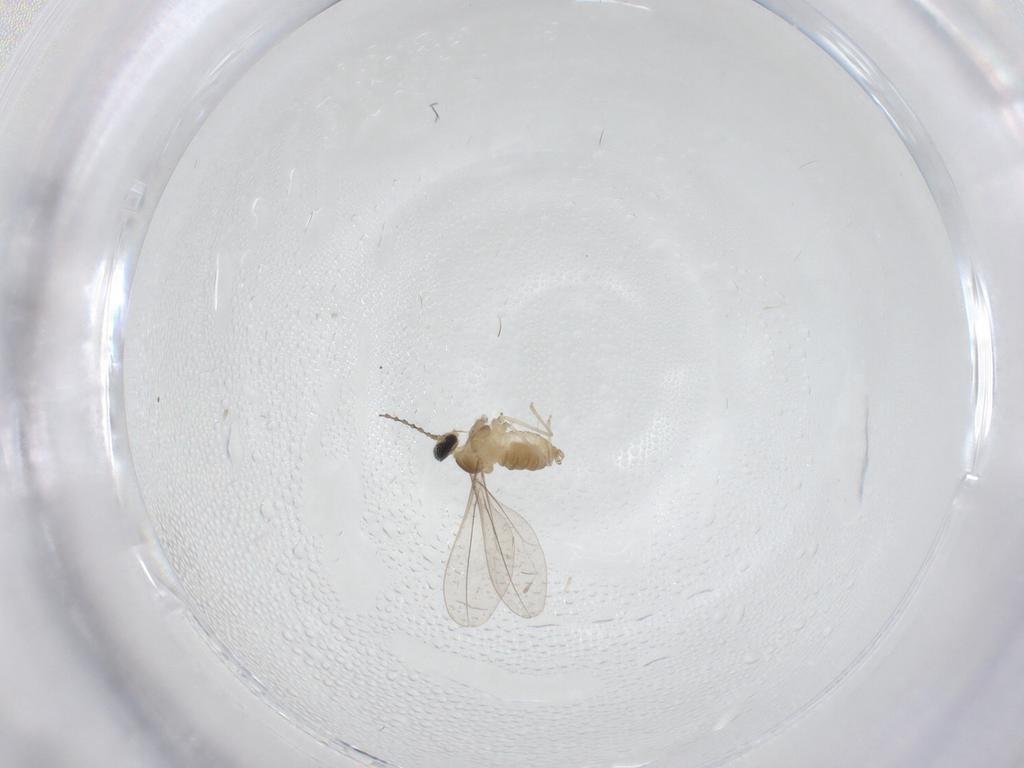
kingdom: Animalia
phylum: Arthropoda
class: Insecta
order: Diptera
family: Cecidomyiidae
